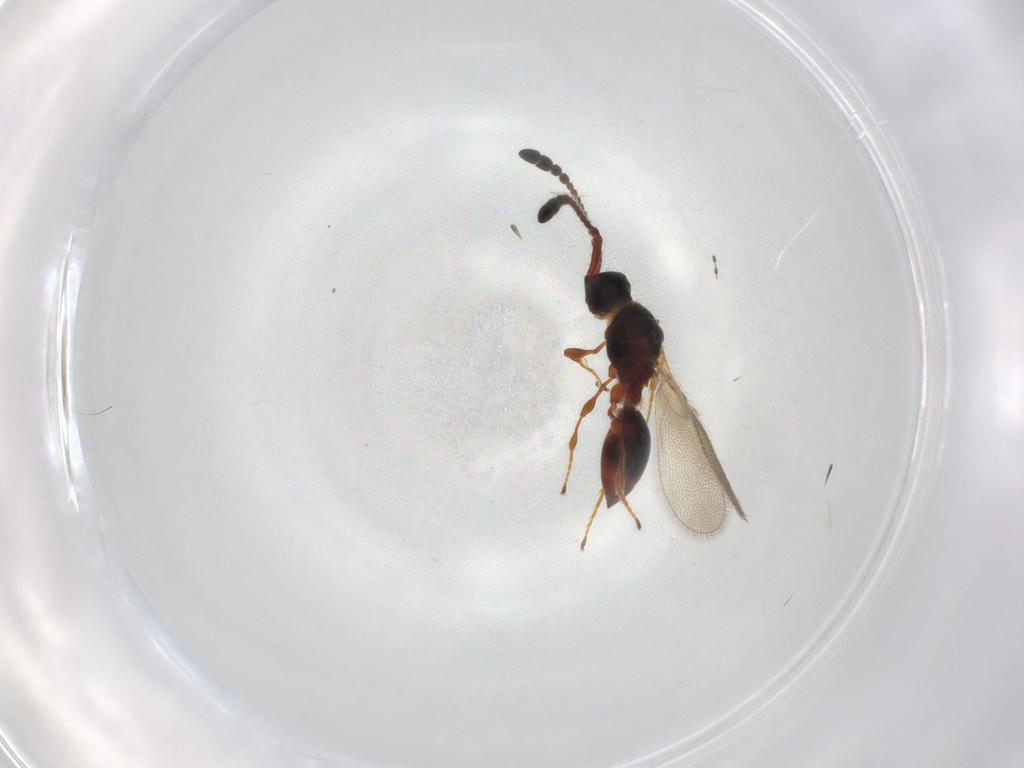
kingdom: Animalia
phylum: Arthropoda
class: Insecta
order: Hymenoptera
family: Diapriidae
